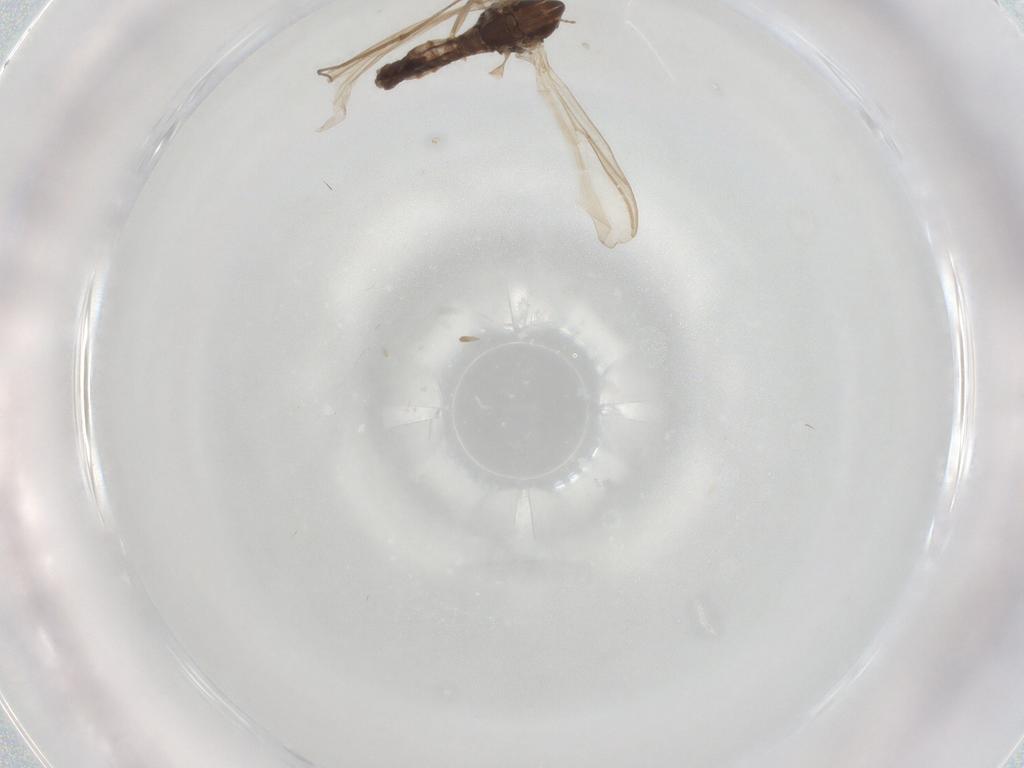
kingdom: Animalia
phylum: Arthropoda
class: Insecta
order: Diptera
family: Chironomidae
